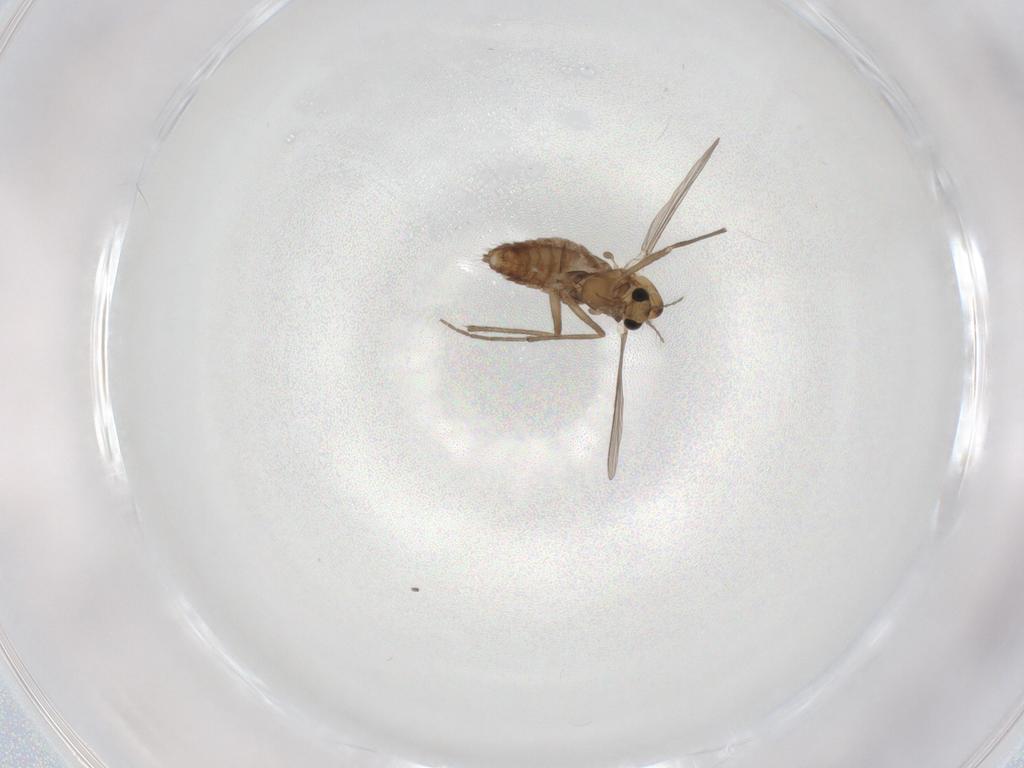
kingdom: Animalia
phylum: Arthropoda
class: Insecta
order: Diptera
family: Chironomidae
